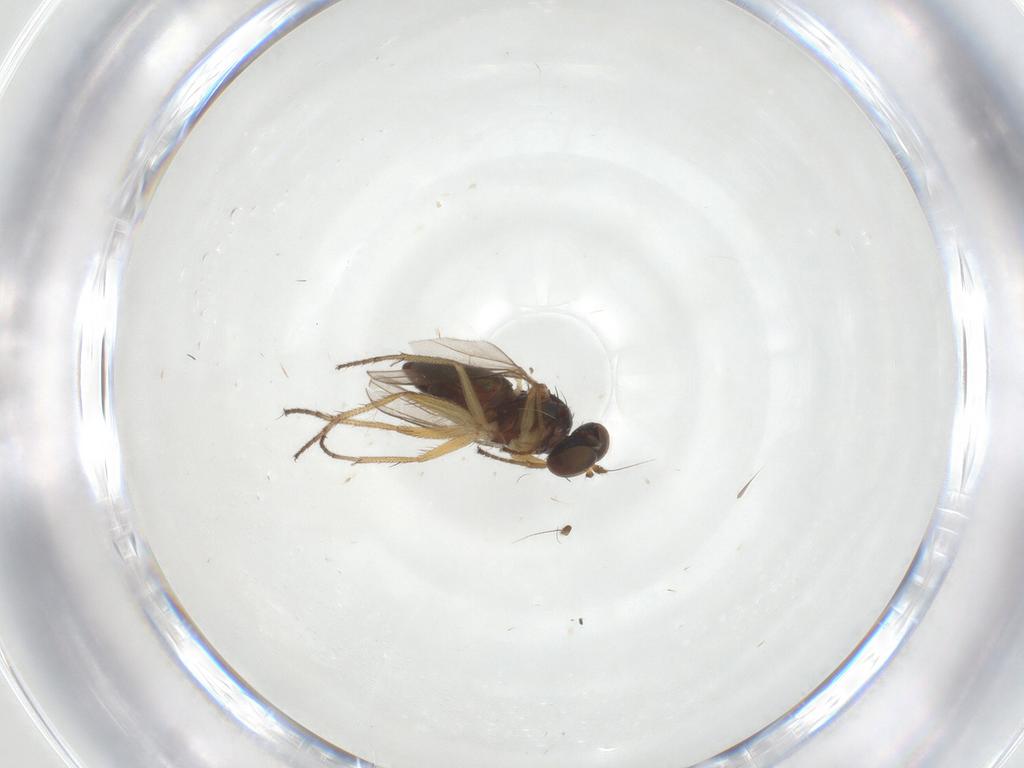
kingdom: Animalia
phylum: Arthropoda
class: Insecta
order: Diptera
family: Dolichopodidae
